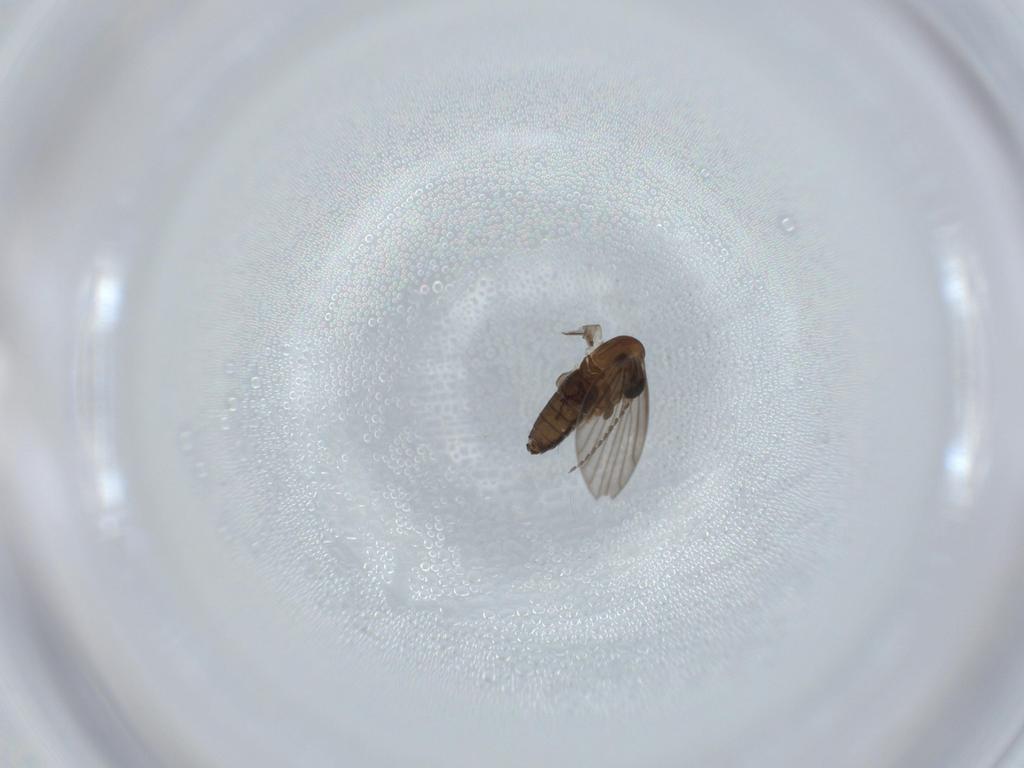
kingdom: Animalia
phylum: Arthropoda
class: Insecta
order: Diptera
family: Psychodidae
